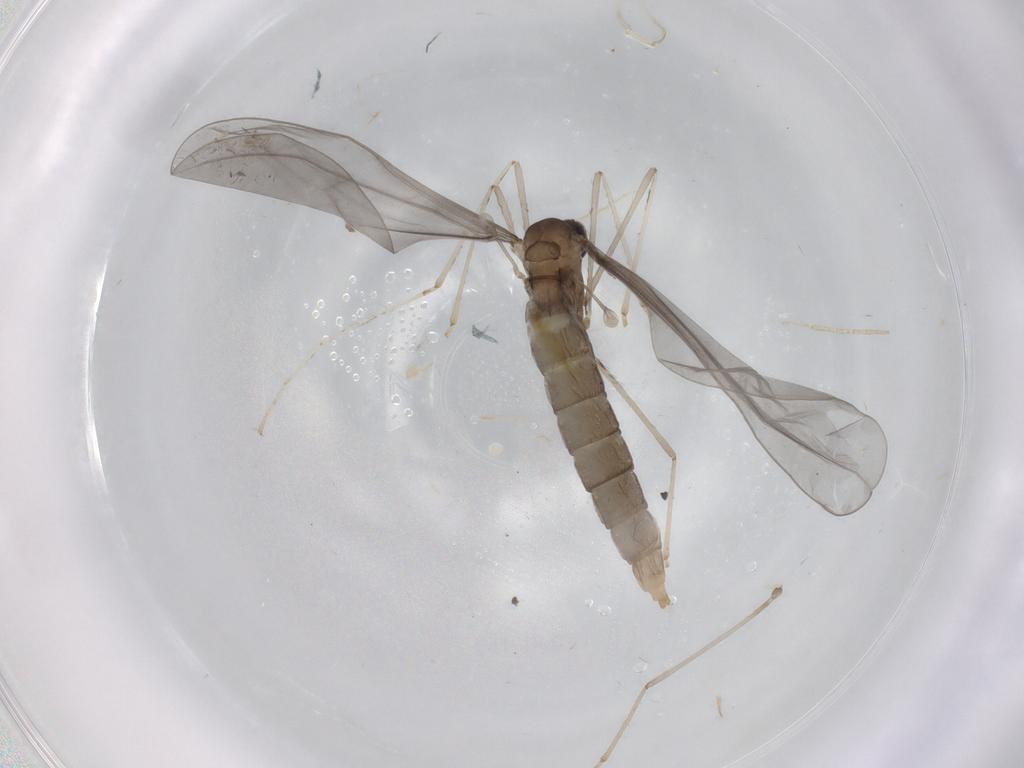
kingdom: Animalia
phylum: Arthropoda
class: Insecta
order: Diptera
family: Cecidomyiidae
